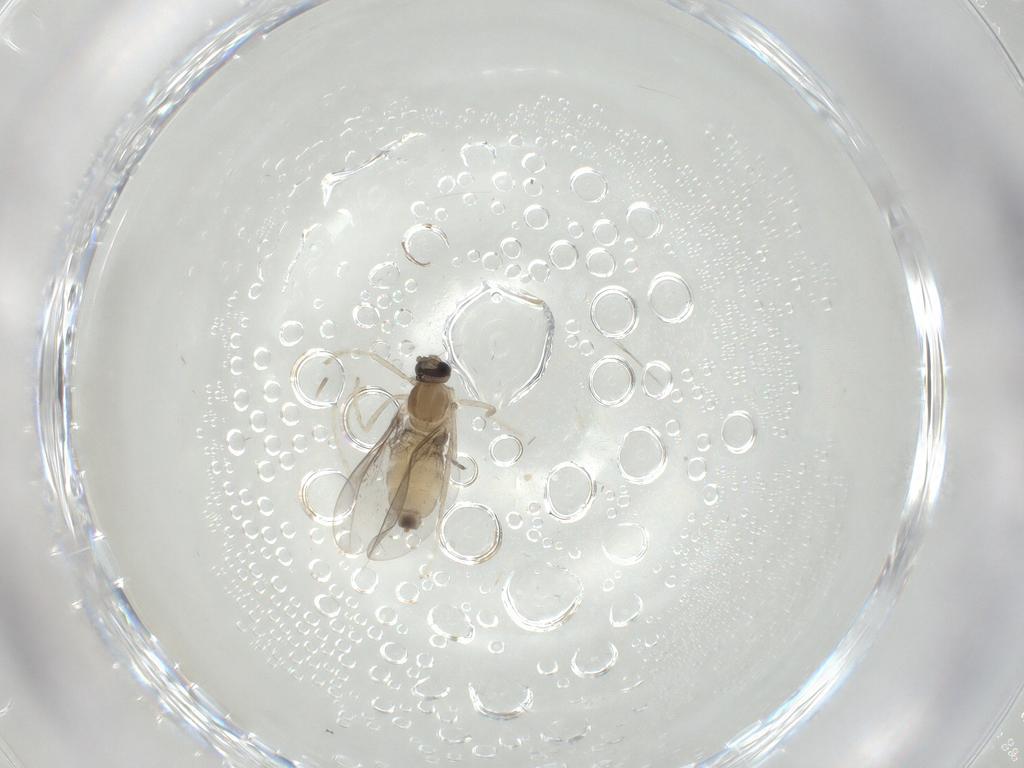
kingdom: Animalia
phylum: Arthropoda
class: Insecta
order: Diptera
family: Cecidomyiidae
